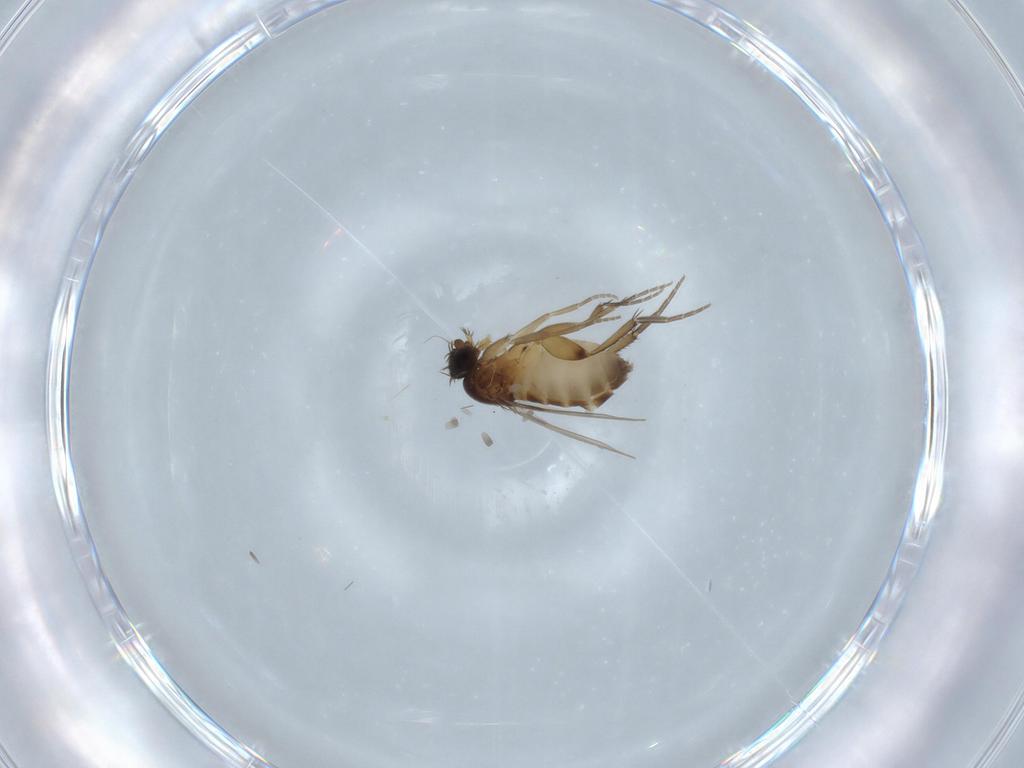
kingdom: Animalia
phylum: Arthropoda
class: Insecta
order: Diptera
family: Phoridae
